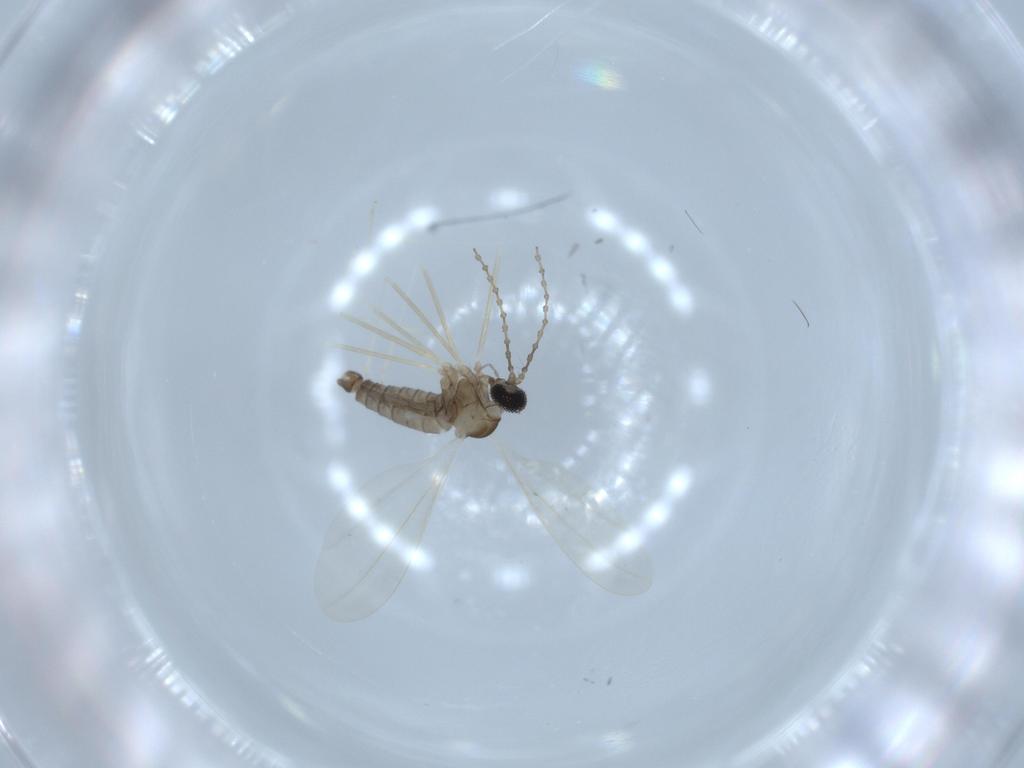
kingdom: Animalia
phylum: Arthropoda
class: Insecta
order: Diptera
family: Cecidomyiidae
